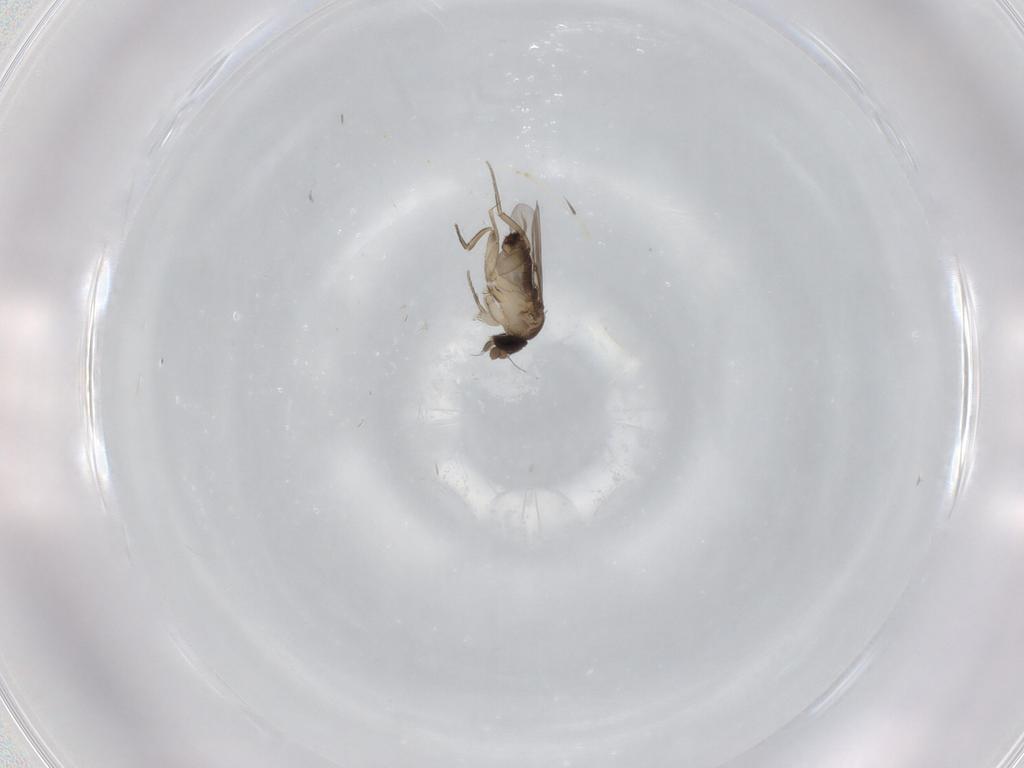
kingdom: Animalia
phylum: Arthropoda
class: Insecta
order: Diptera
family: Phoridae
